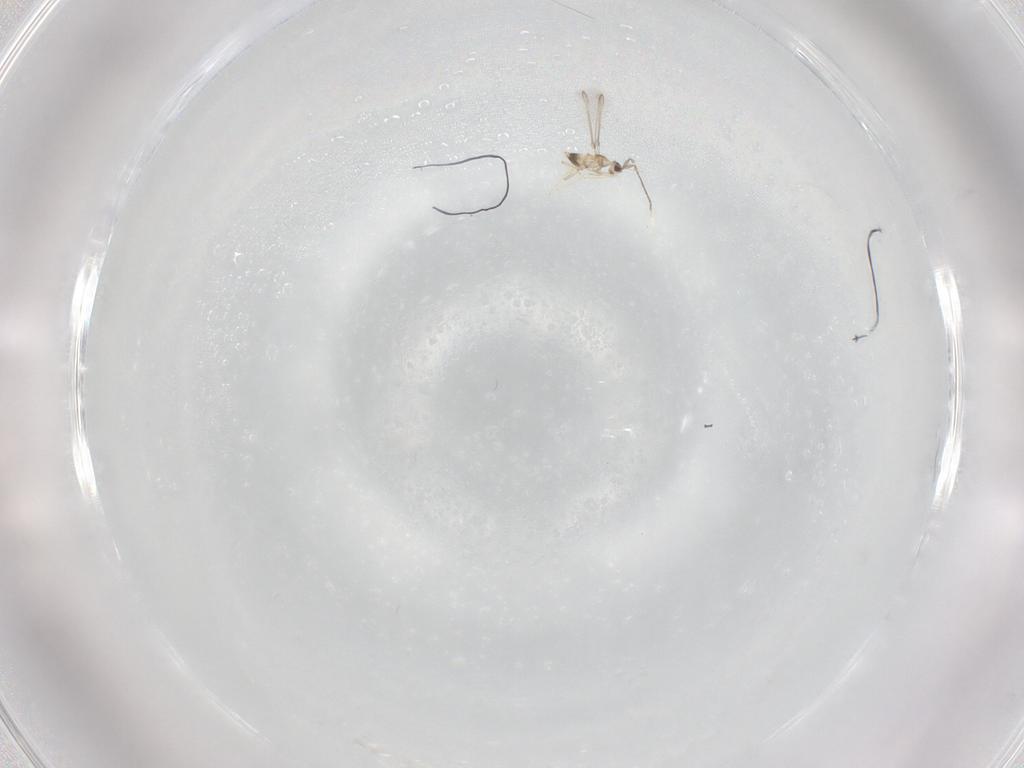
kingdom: Animalia
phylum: Arthropoda
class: Insecta
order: Hymenoptera
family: Mymaridae
